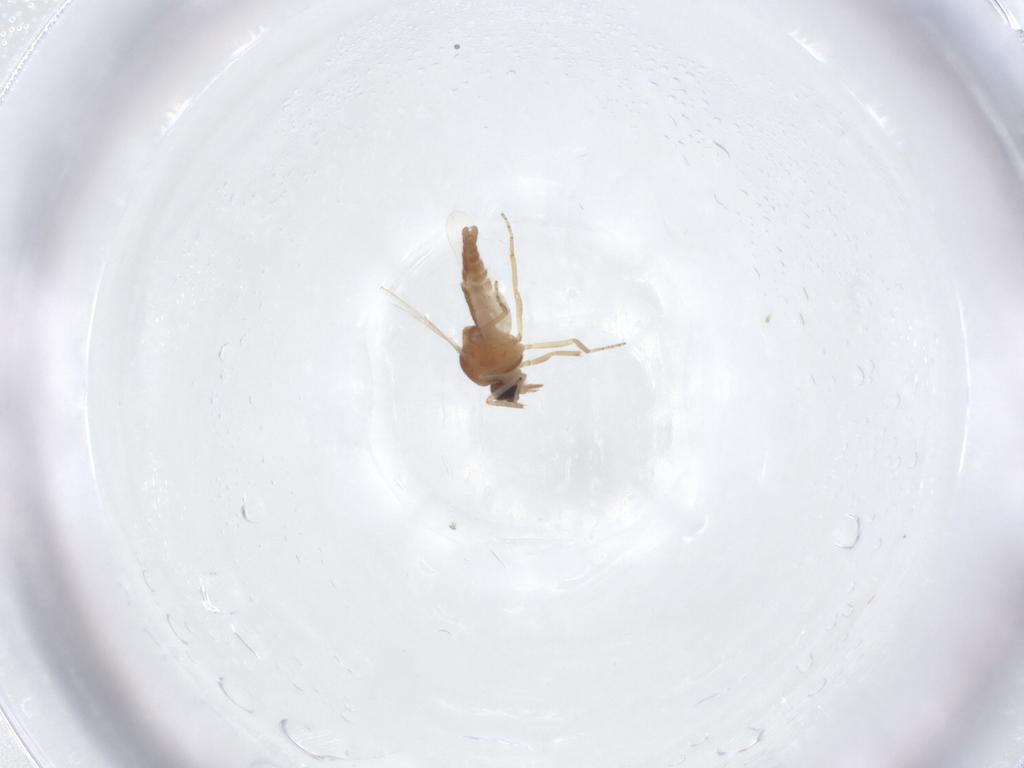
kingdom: Animalia
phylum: Arthropoda
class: Insecta
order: Diptera
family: Ceratopogonidae
